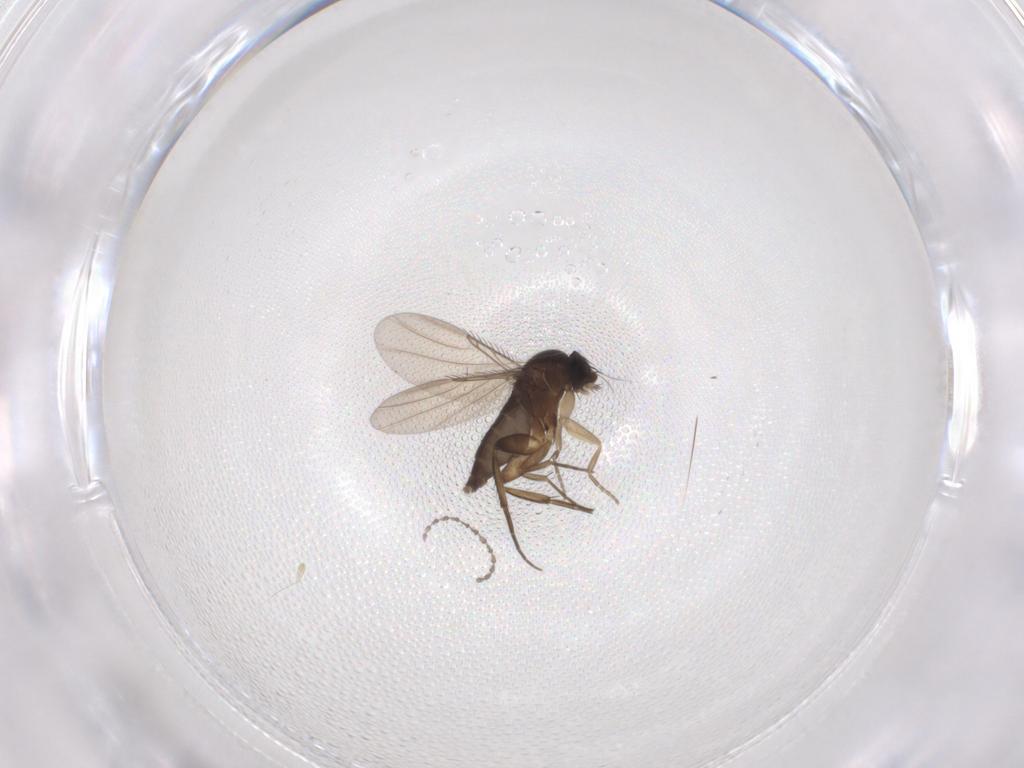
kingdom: Animalia
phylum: Arthropoda
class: Insecta
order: Diptera
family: Phoridae
